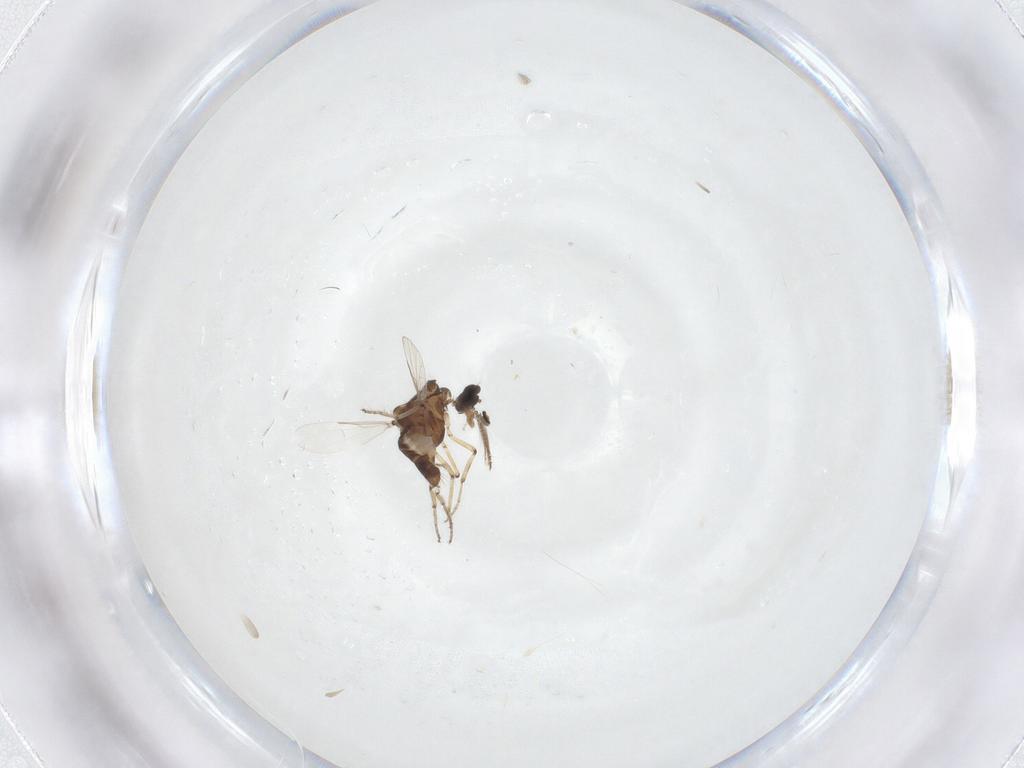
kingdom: Animalia
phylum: Arthropoda
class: Insecta
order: Diptera
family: Ceratopogonidae
